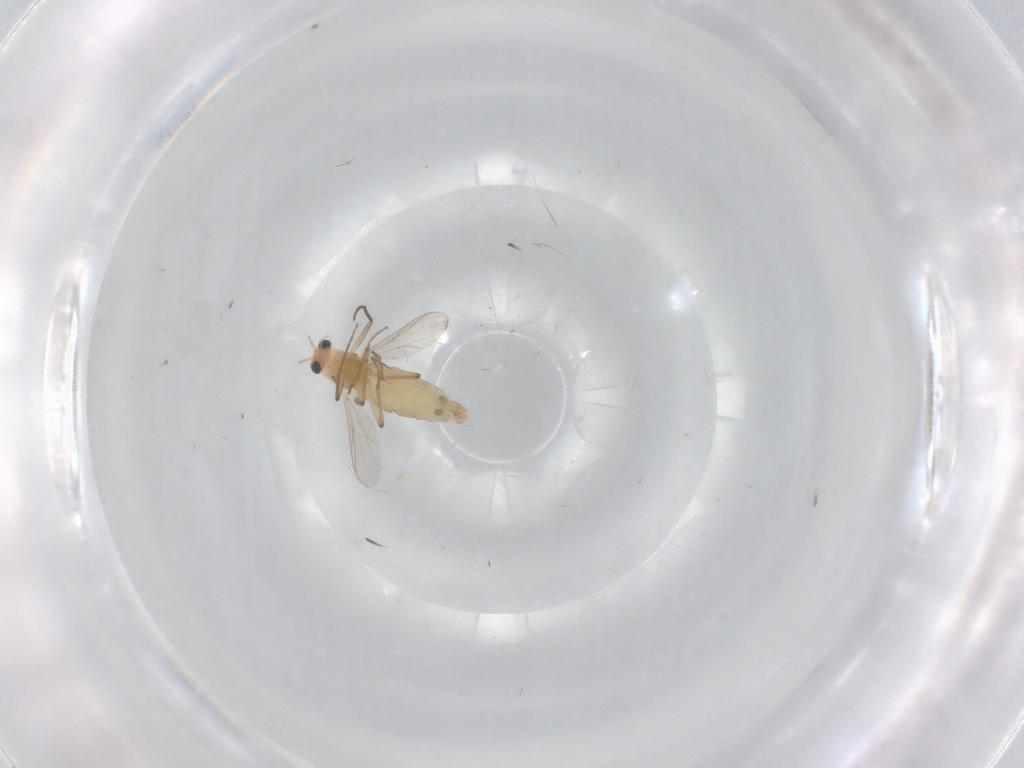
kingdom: Animalia
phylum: Arthropoda
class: Insecta
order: Diptera
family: Chironomidae
